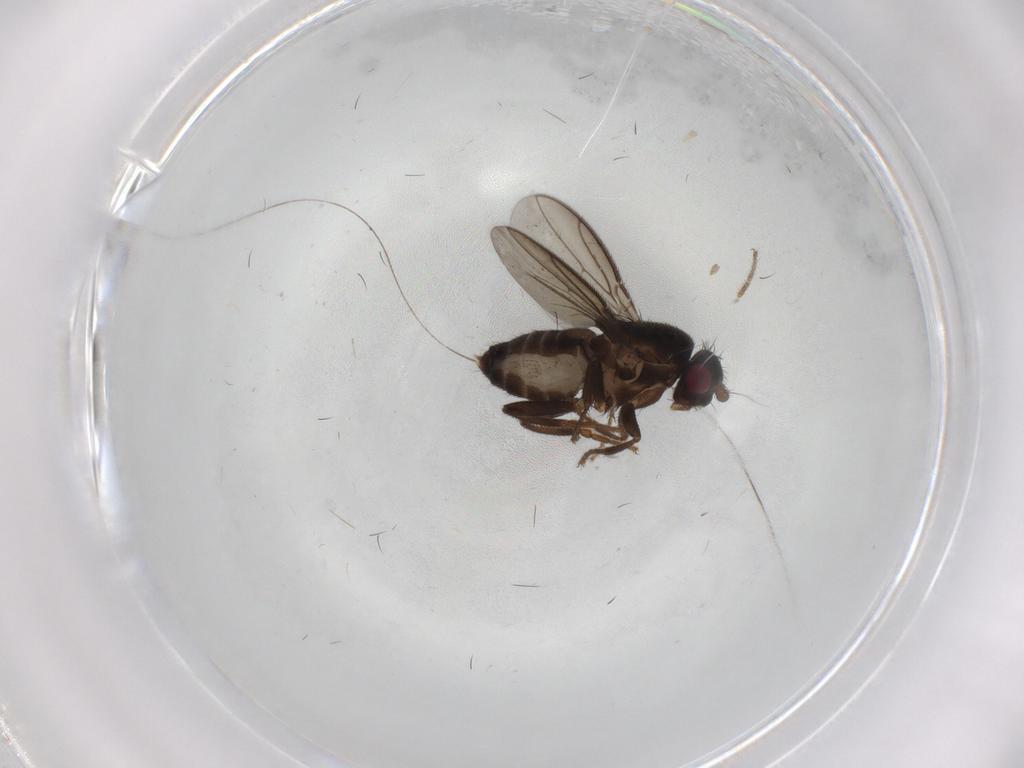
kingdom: Animalia
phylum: Arthropoda
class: Insecta
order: Diptera
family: Sphaeroceridae
